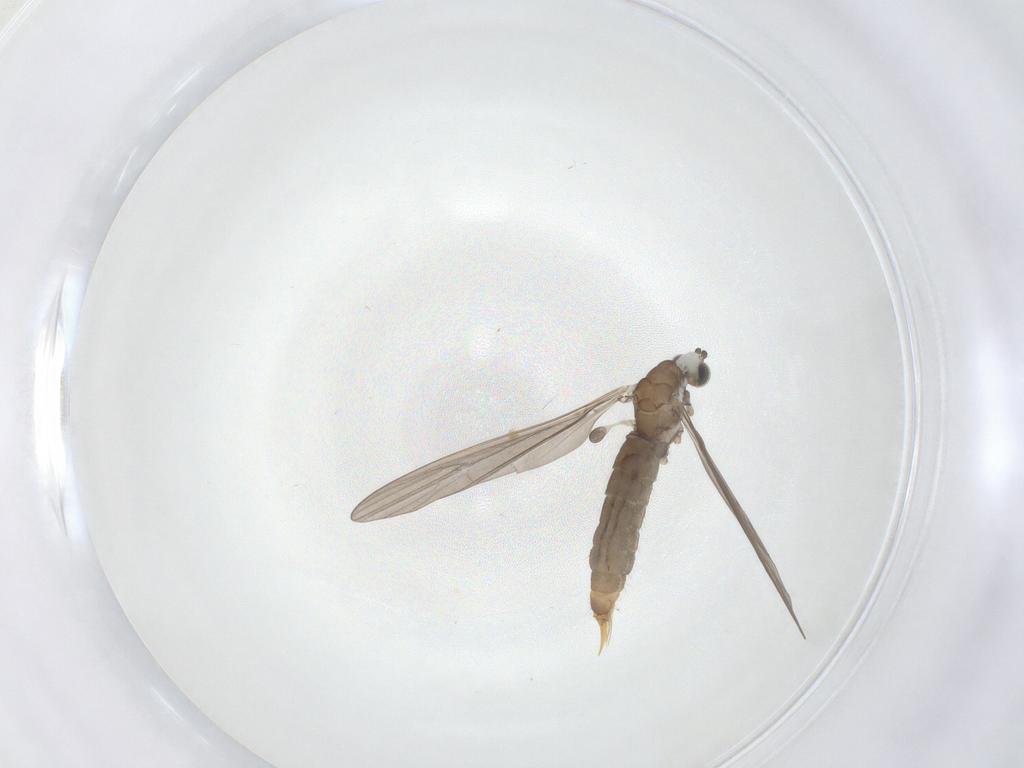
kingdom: Animalia
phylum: Arthropoda
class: Insecta
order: Diptera
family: Limoniidae
